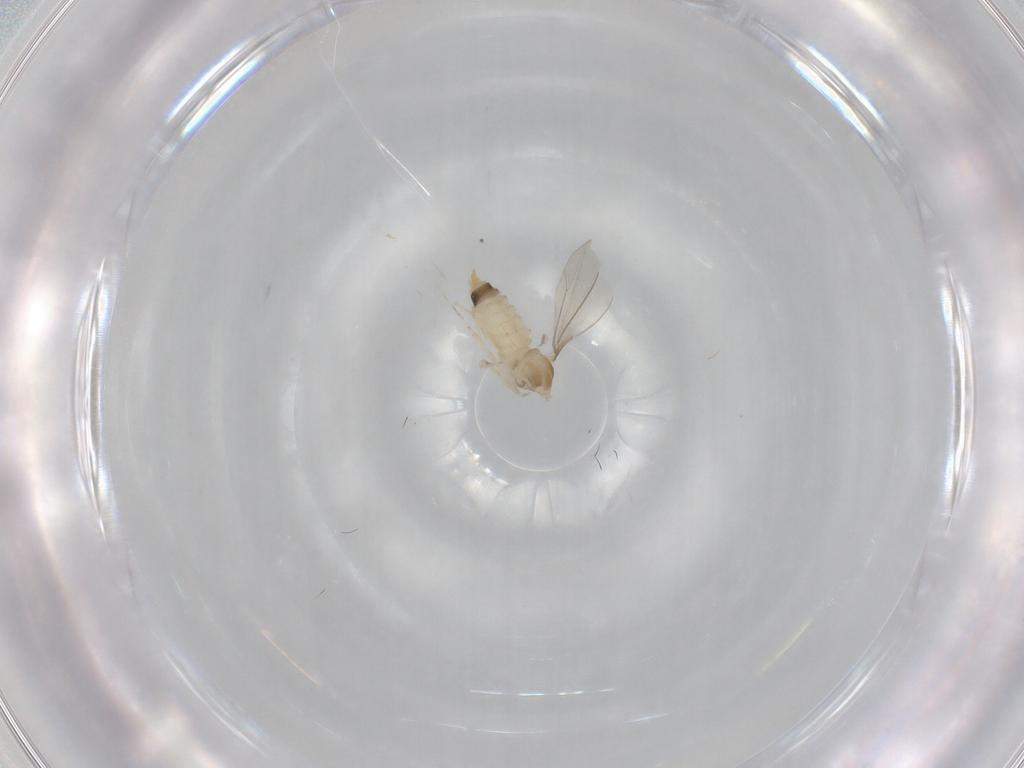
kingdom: Animalia
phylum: Arthropoda
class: Insecta
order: Diptera
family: Cecidomyiidae
